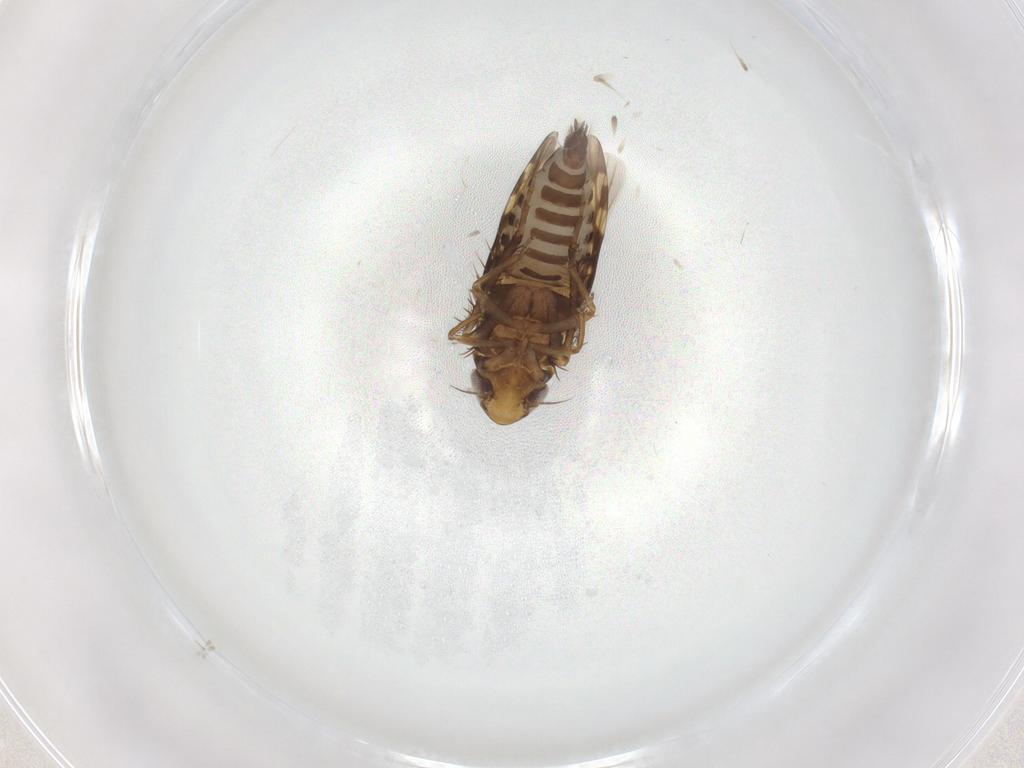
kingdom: Animalia
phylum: Arthropoda
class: Insecta
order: Hemiptera
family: Cicadellidae
